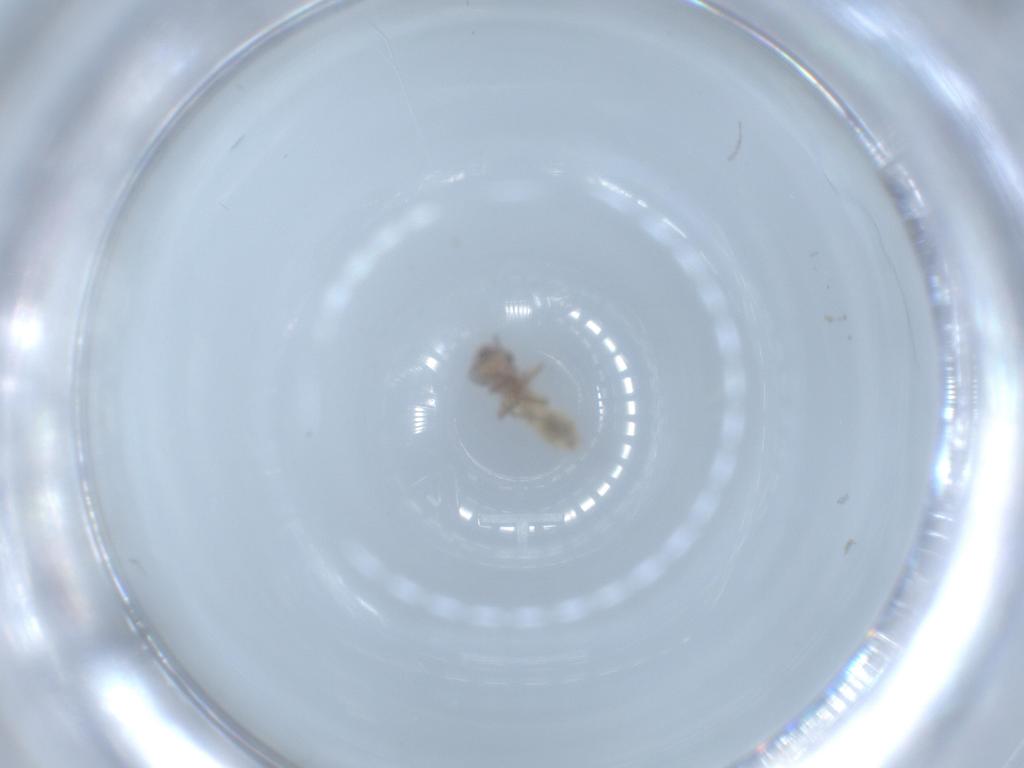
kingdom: Animalia
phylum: Arthropoda
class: Insecta
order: Psocodea
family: Lepidopsocidae
